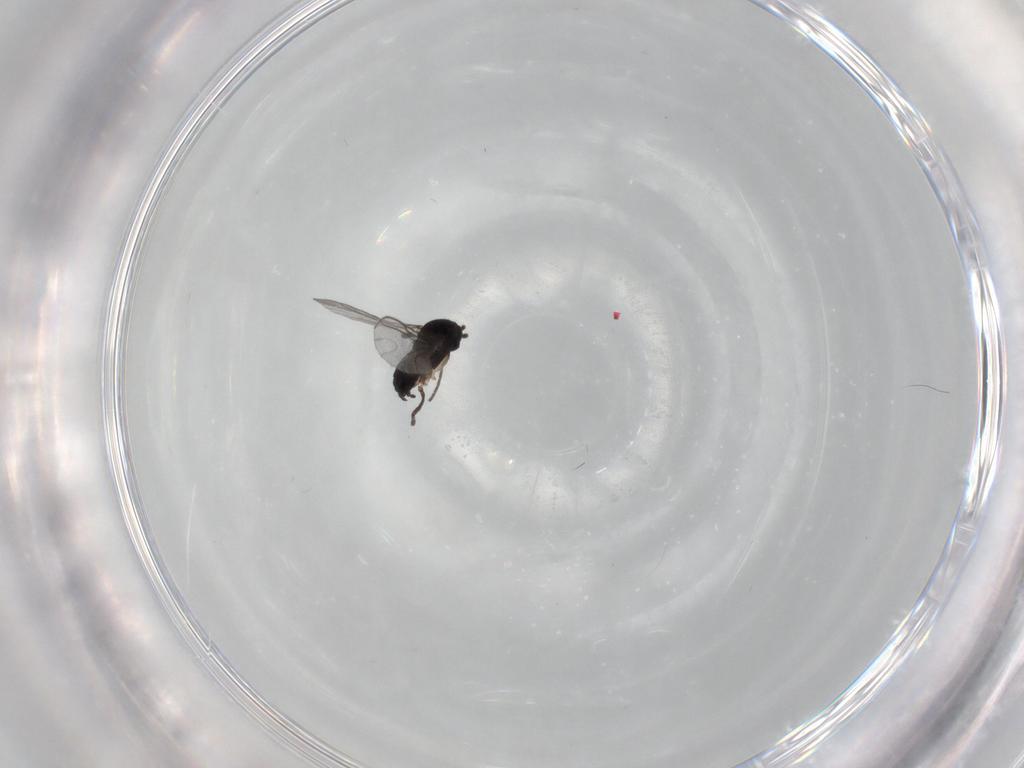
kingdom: Animalia
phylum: Arthropoda
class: Insecta
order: Diptera
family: Sciaridae
